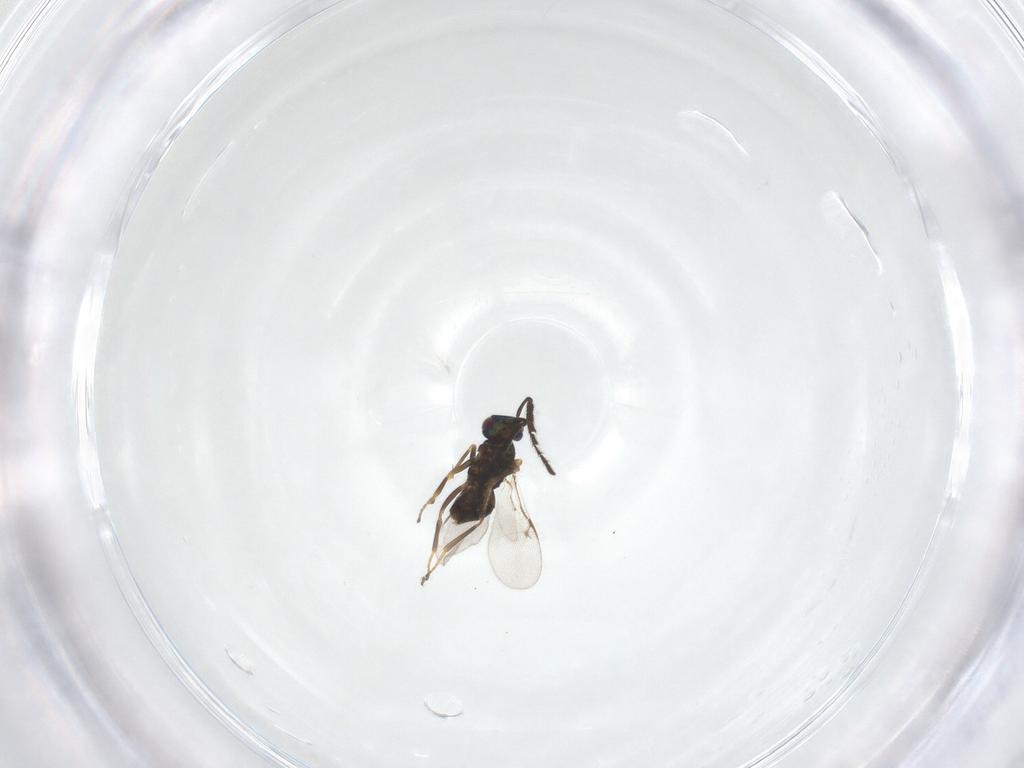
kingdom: Animalia
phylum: Arthropoda
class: Insecta
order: Hymenoptera
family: Encyrtidae
